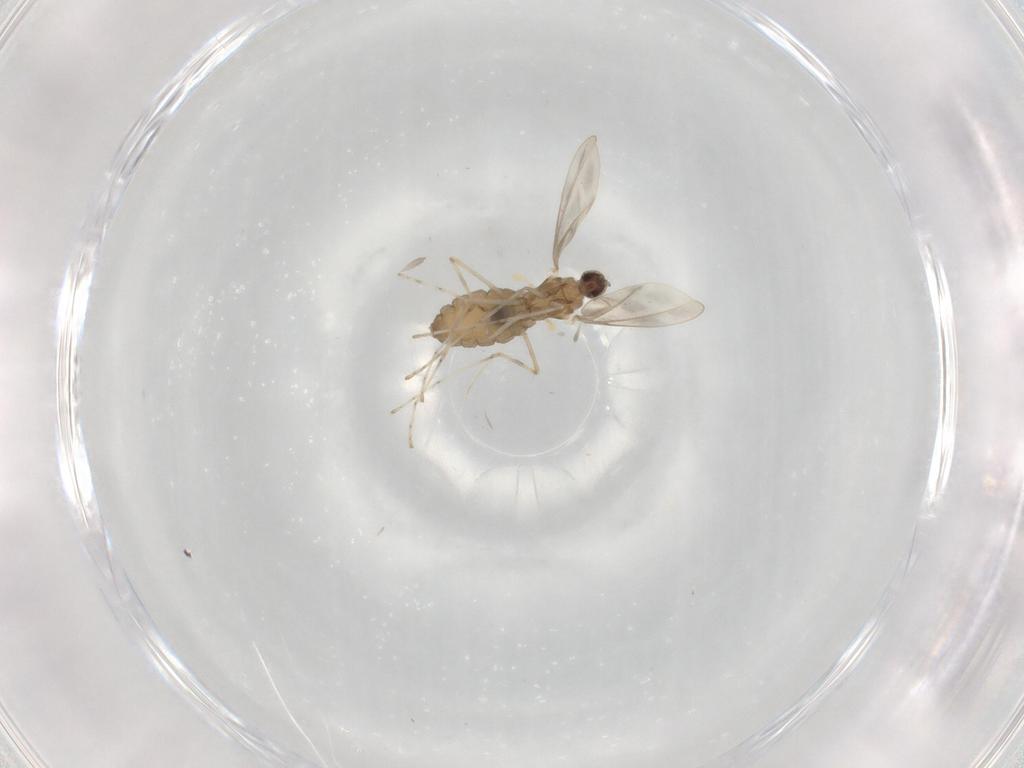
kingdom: Animalia
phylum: Arthropoda
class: Insecta
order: Diptera
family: Cecidomyiidae
